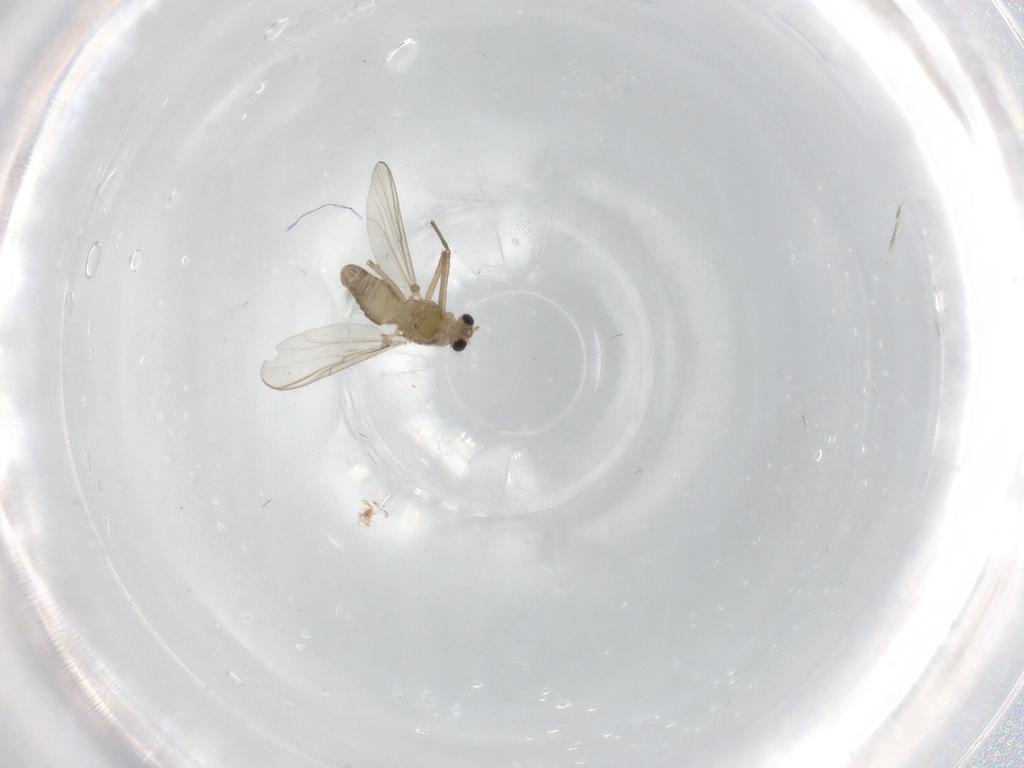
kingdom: Animalia
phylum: Arthropoda
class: Insecta
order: Diptera
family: Chironomidae
